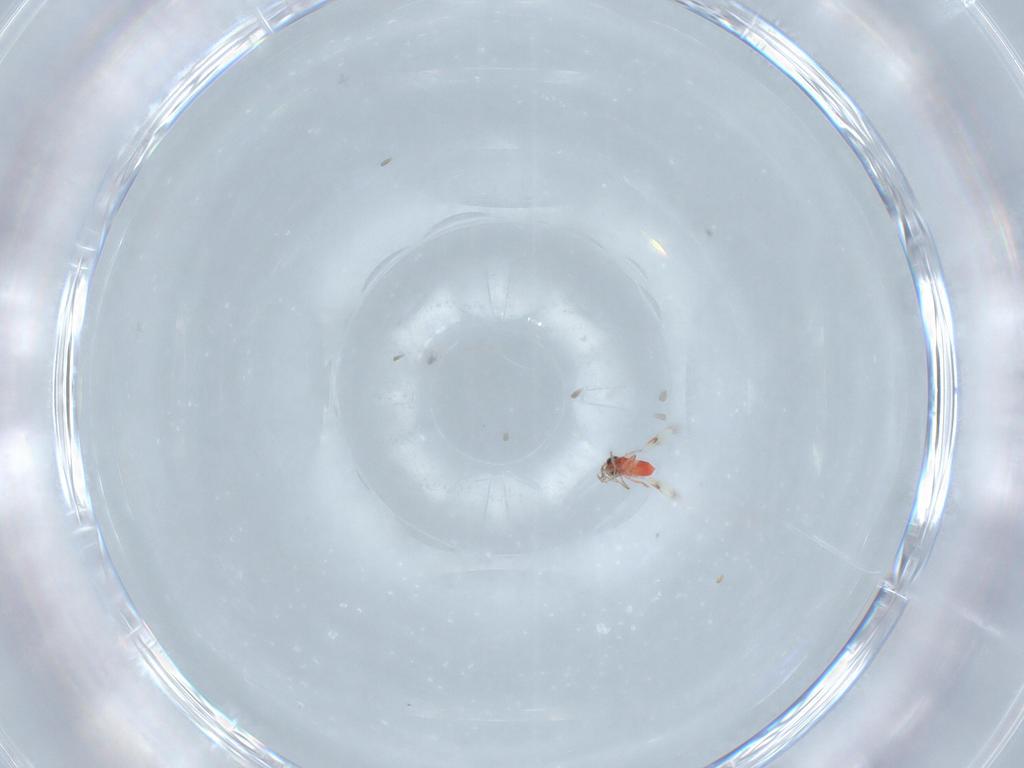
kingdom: Animalia
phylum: Arthropoda
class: Insecta
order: Hymenoptera
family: Trichogrammatidae
